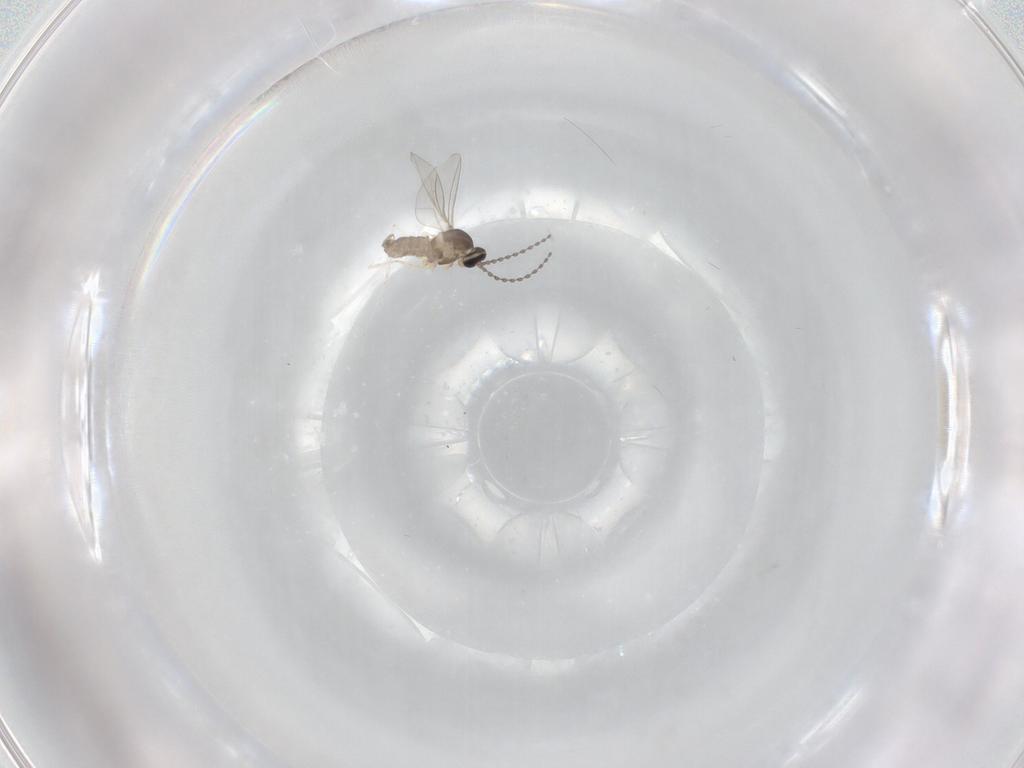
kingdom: Animalia
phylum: Arthropoda
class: Insecta
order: Diptera
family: Cecidomyiidae
